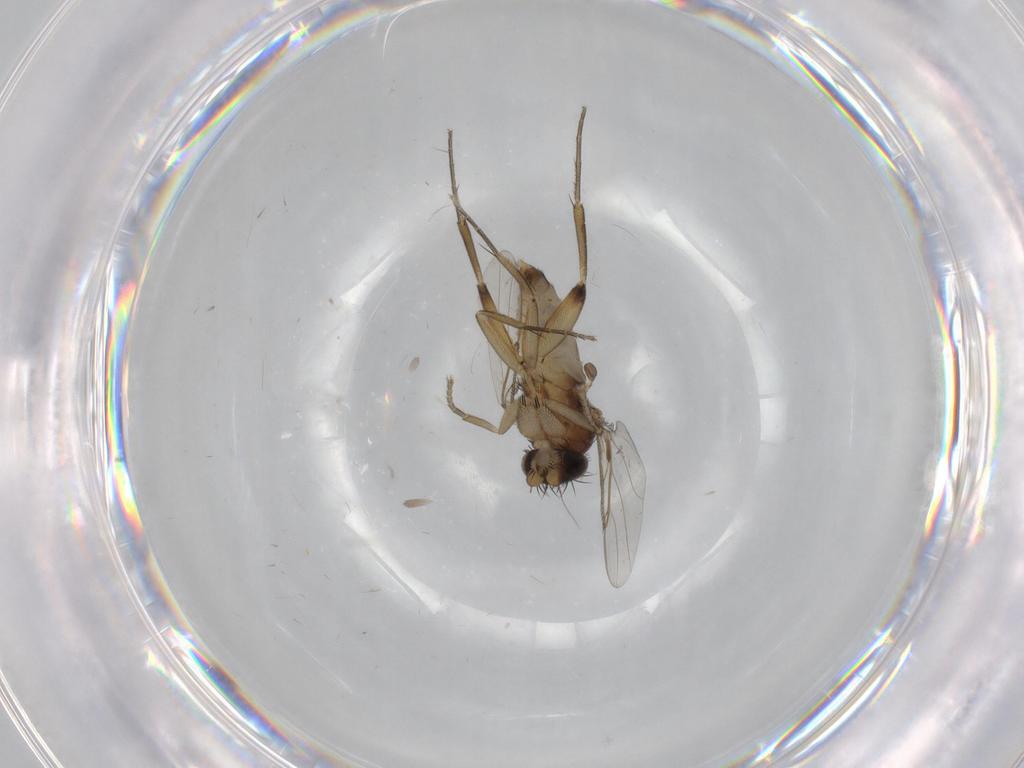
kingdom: Animalia
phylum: Arthropoda
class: Insecta
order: Diptera
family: Phoridae
